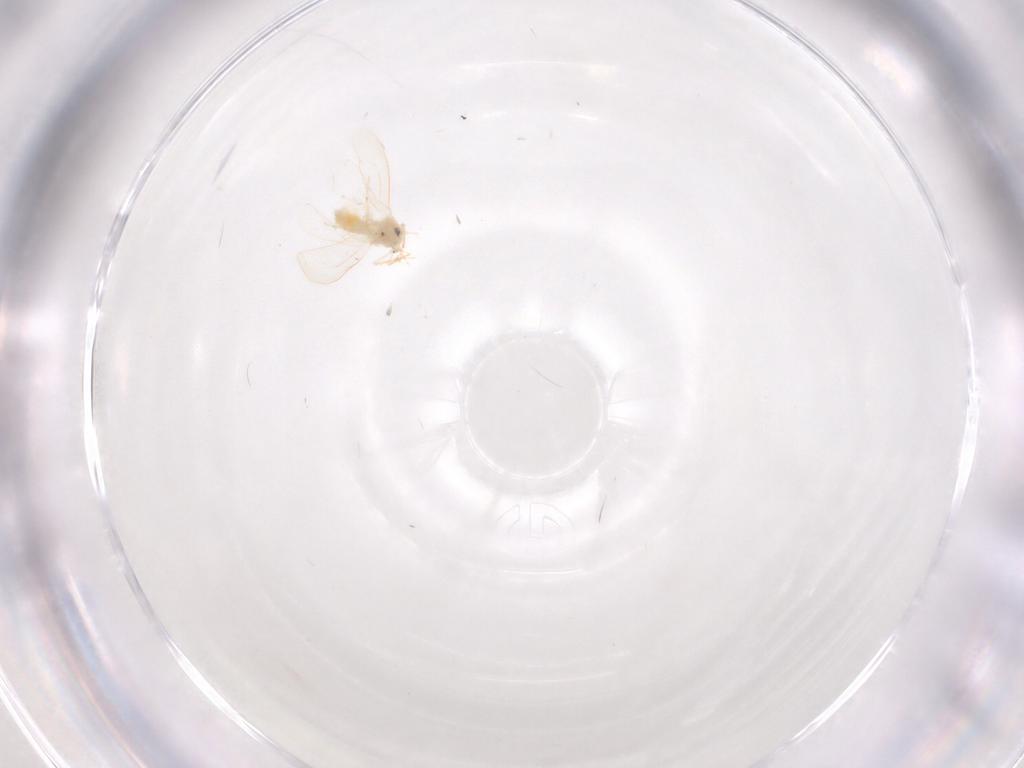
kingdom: Animalia
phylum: Arthropoda
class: Insecta
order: Hemiptera
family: Aleyrodidae
